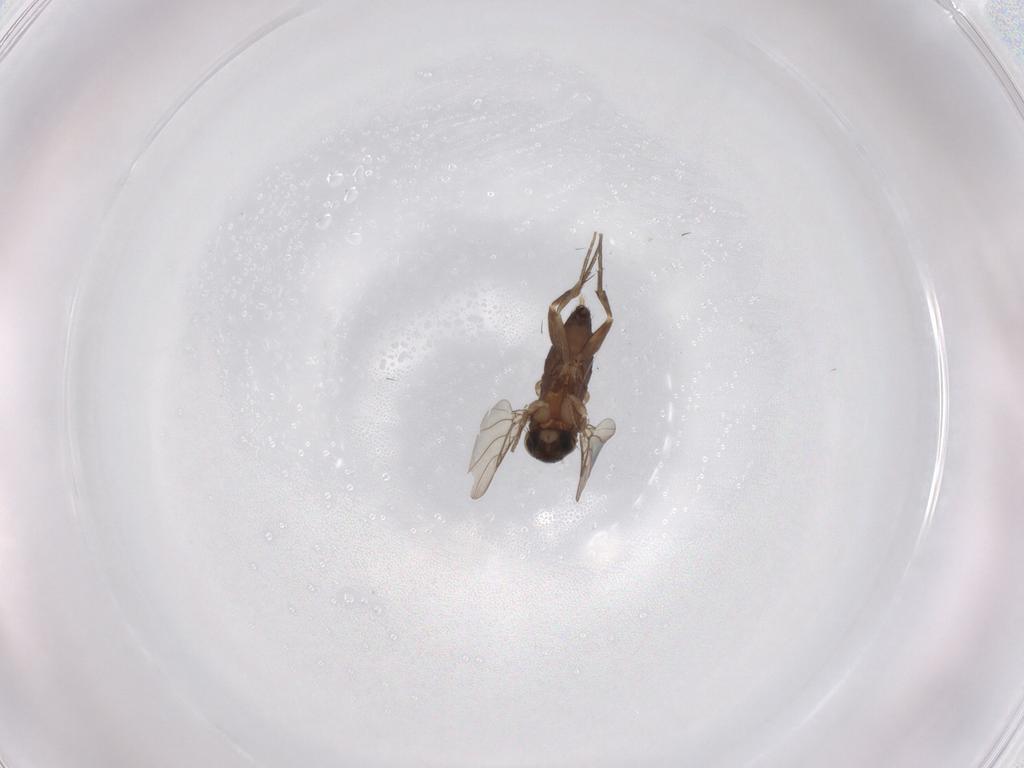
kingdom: Animalia
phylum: Arthropoda
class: Insecta
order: Diptera
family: Phoridae
